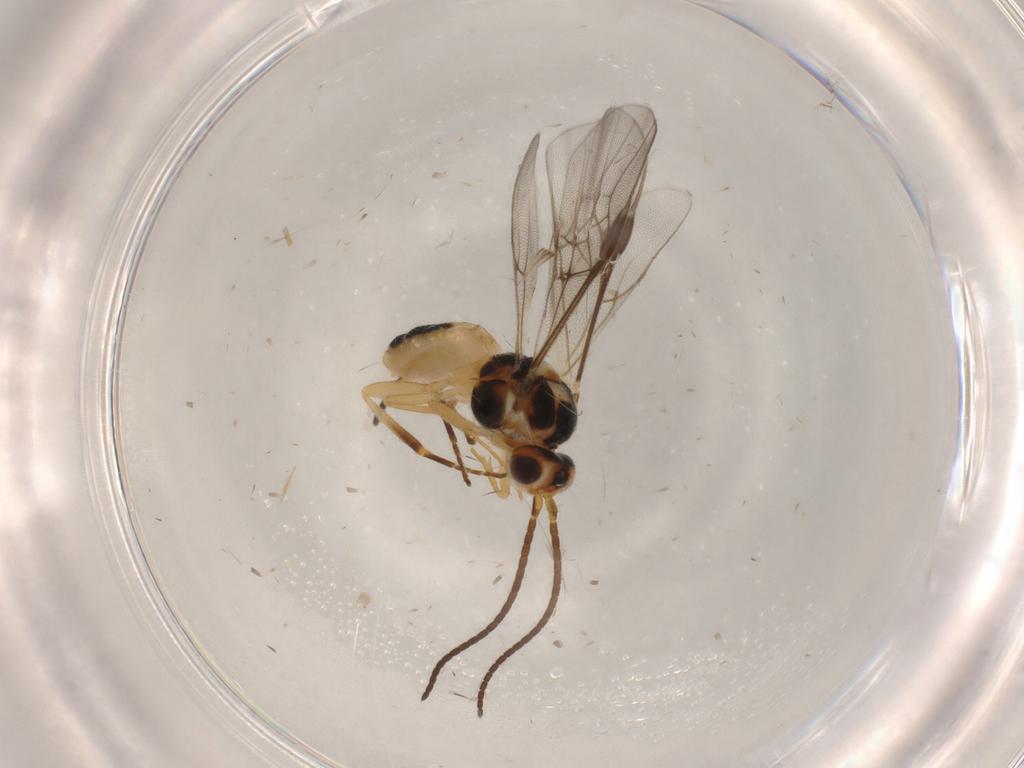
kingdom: Animalia
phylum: Arthropoda
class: Insecta
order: Hymenoptera
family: Braconidae
